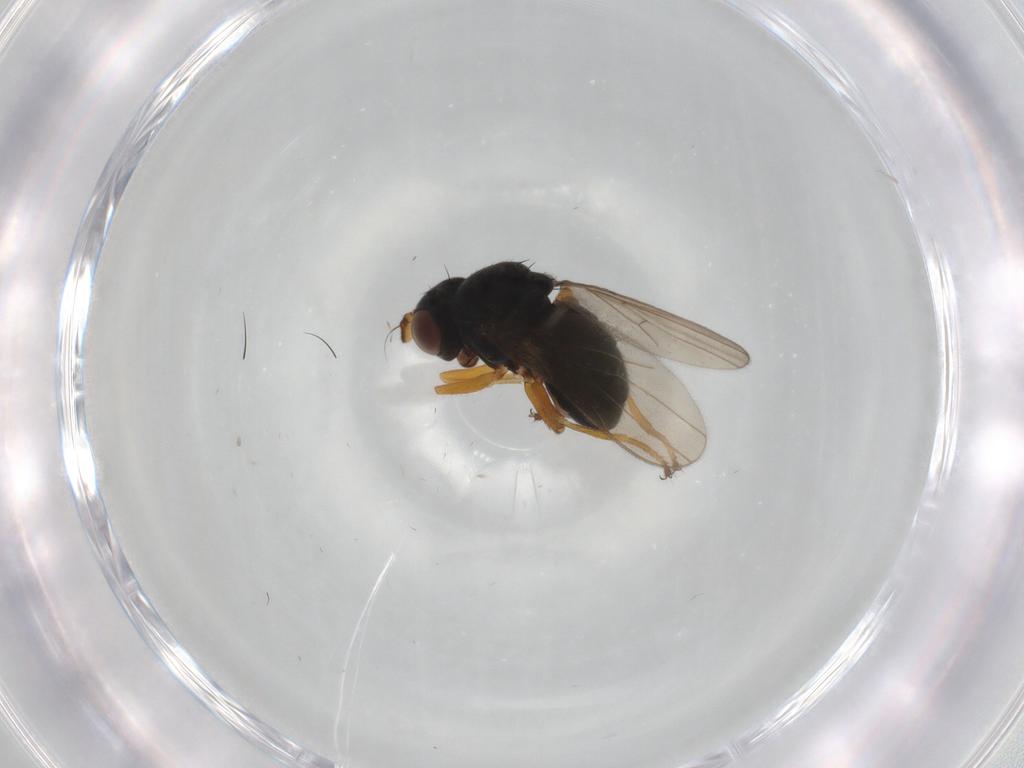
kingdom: Animalia
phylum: Arthropoda
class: Insecta
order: Diptera
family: Ephydridae
